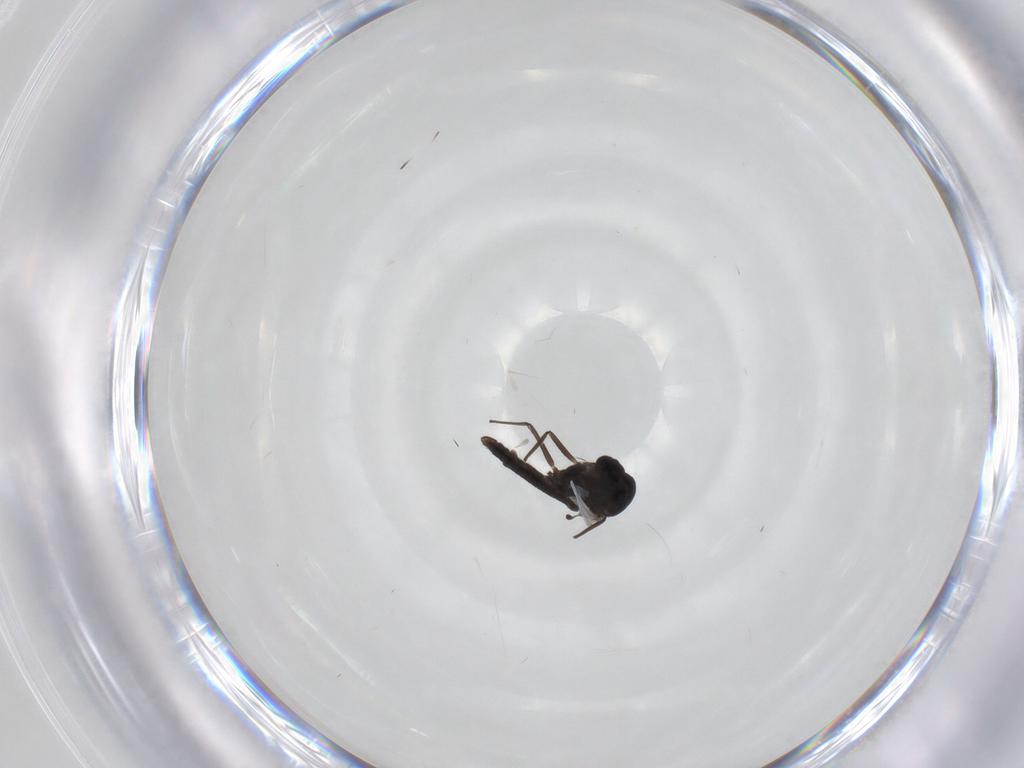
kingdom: Animalia
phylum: Arthropoda
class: Insecta
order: Diptera
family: Chironomidae
